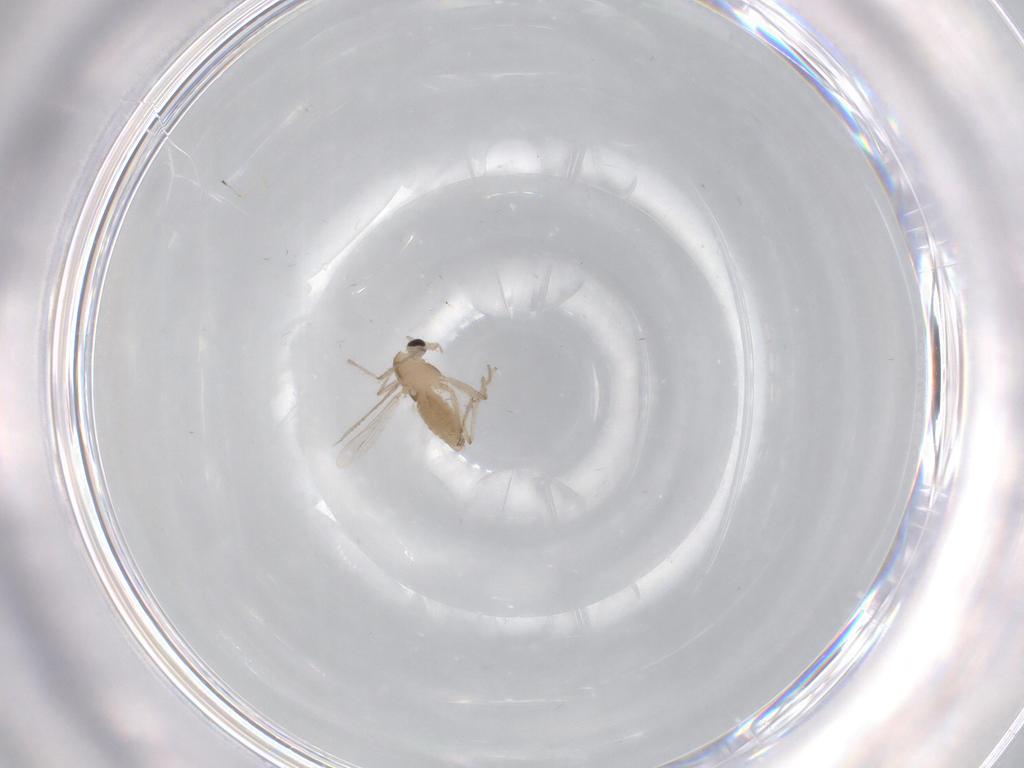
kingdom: Animalia
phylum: Arthropoda
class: Insecta
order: Diptera
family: Chironomidae
